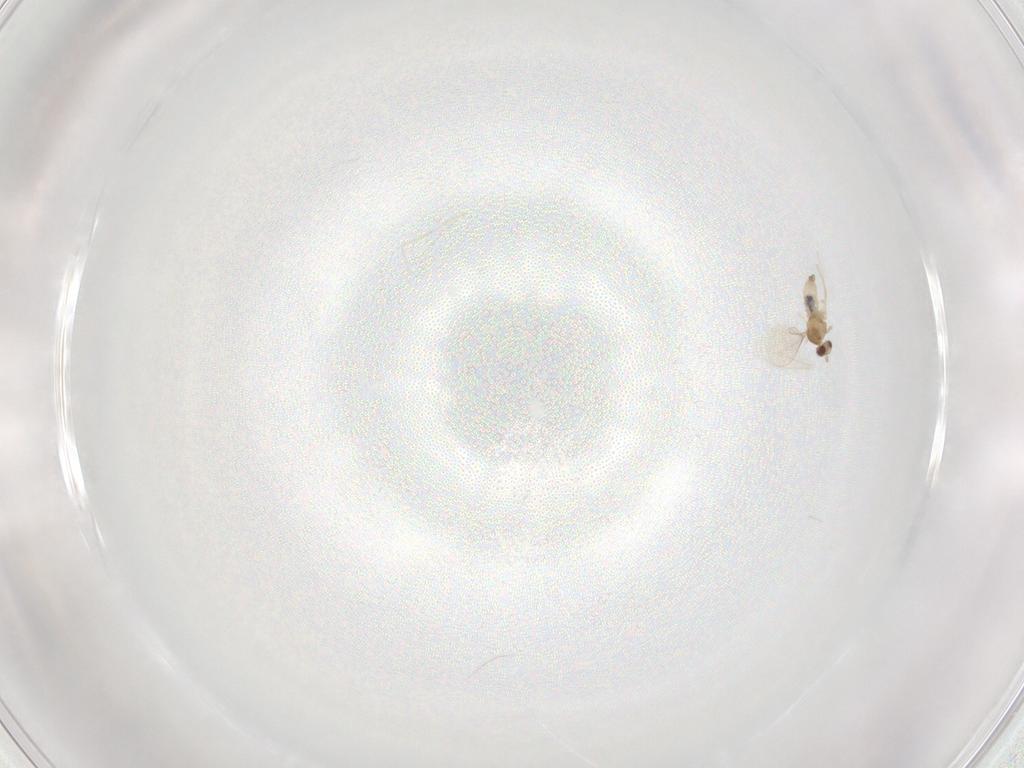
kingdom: Animalia
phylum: Arthropoda
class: Insecta
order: Diptera
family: Cecidomyiidae
